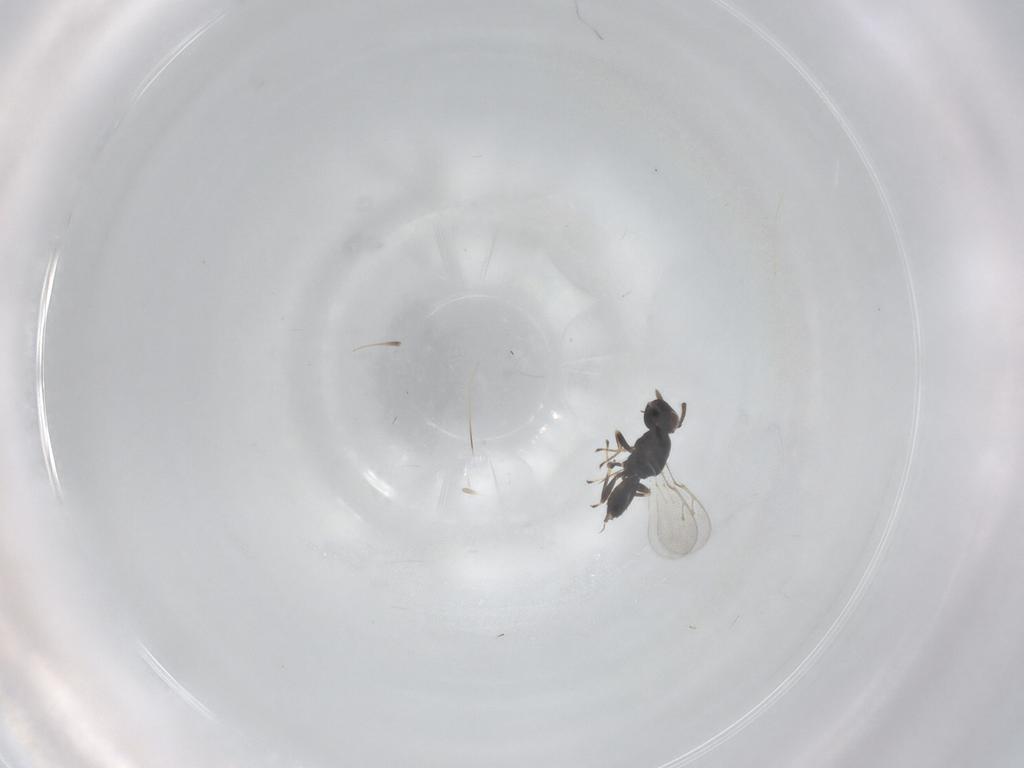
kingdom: Animalia
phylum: Arthropoda
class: Insecta
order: Hymenoptera
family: Pteromalidae
